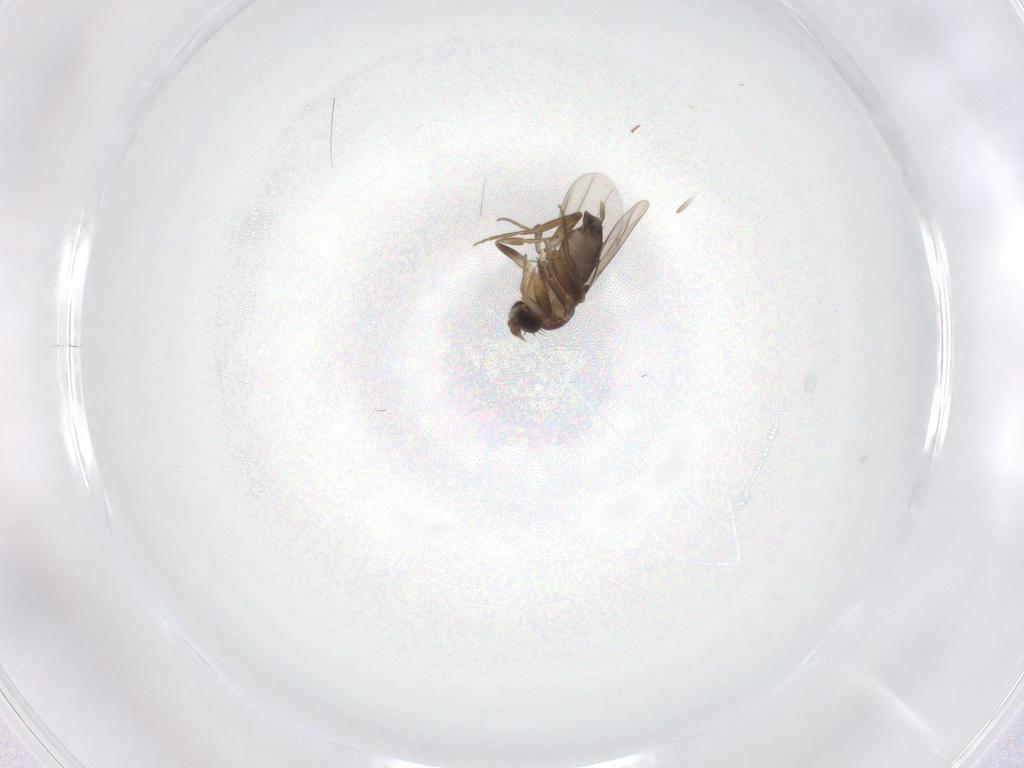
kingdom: Animalia
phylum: Arthropoda
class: Insecta
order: Diptera
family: Phoridae
